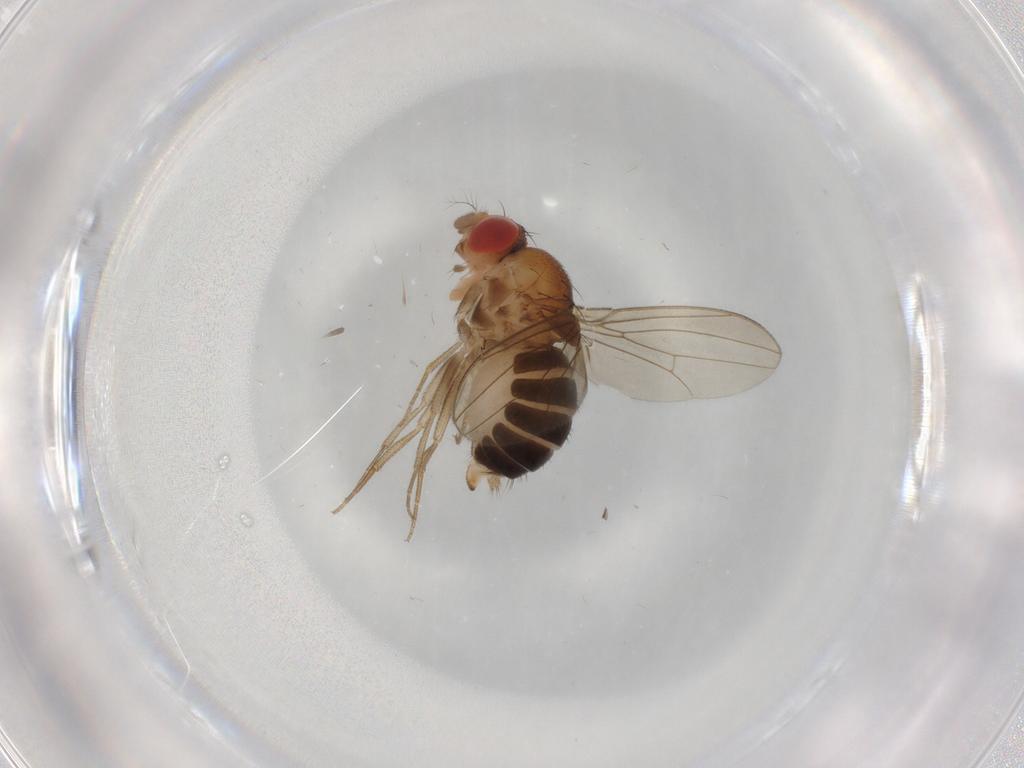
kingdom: Animalia
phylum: Arthropoda
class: Insecta
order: Diptera
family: Drosophilidae
